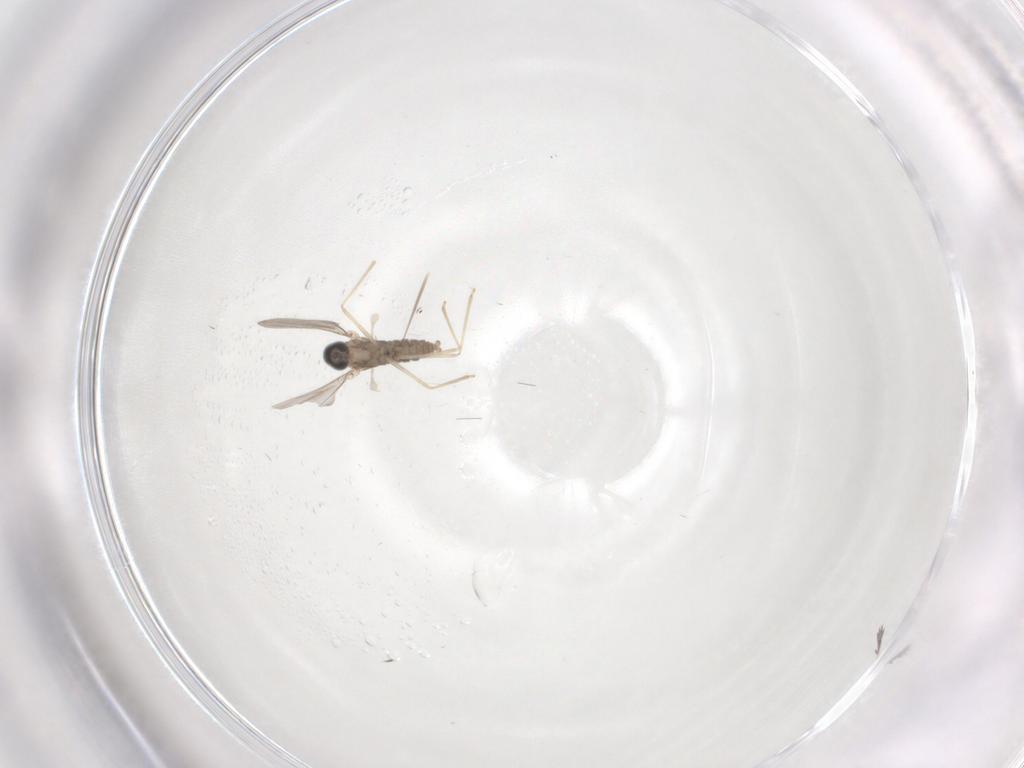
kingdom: Animalia
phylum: Arthropoda
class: Insecta
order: Diptera
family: Cecidomyiidae
